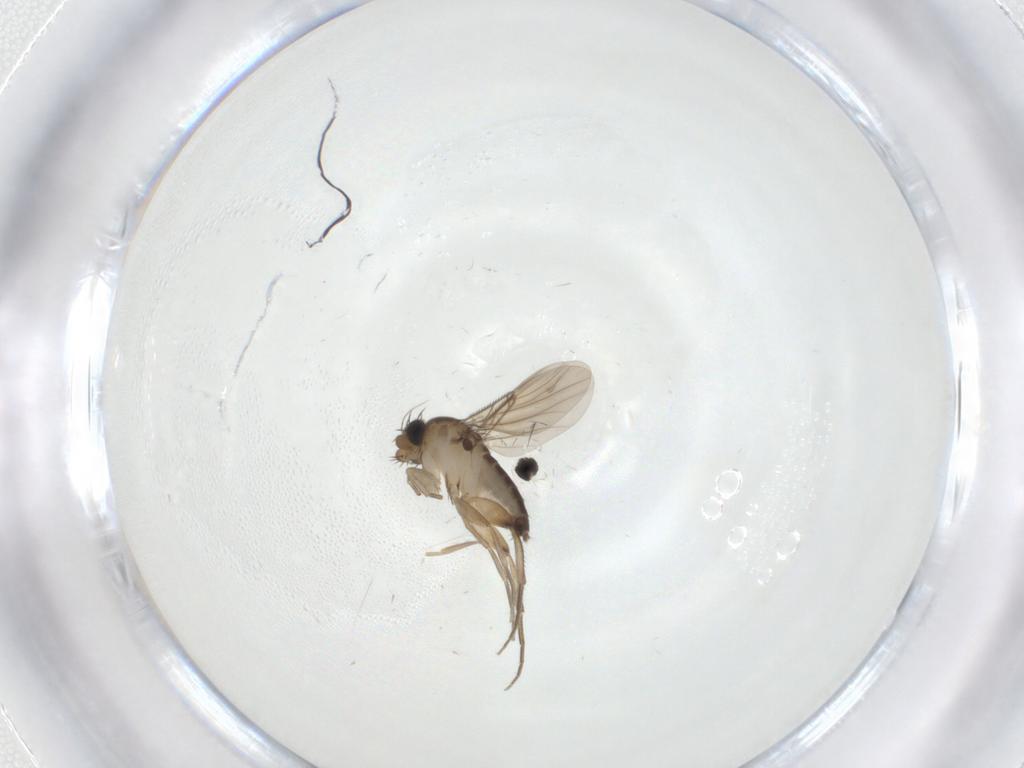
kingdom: Animalia
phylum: Arthropoda
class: Insecta
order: Diptera
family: Phoridae
